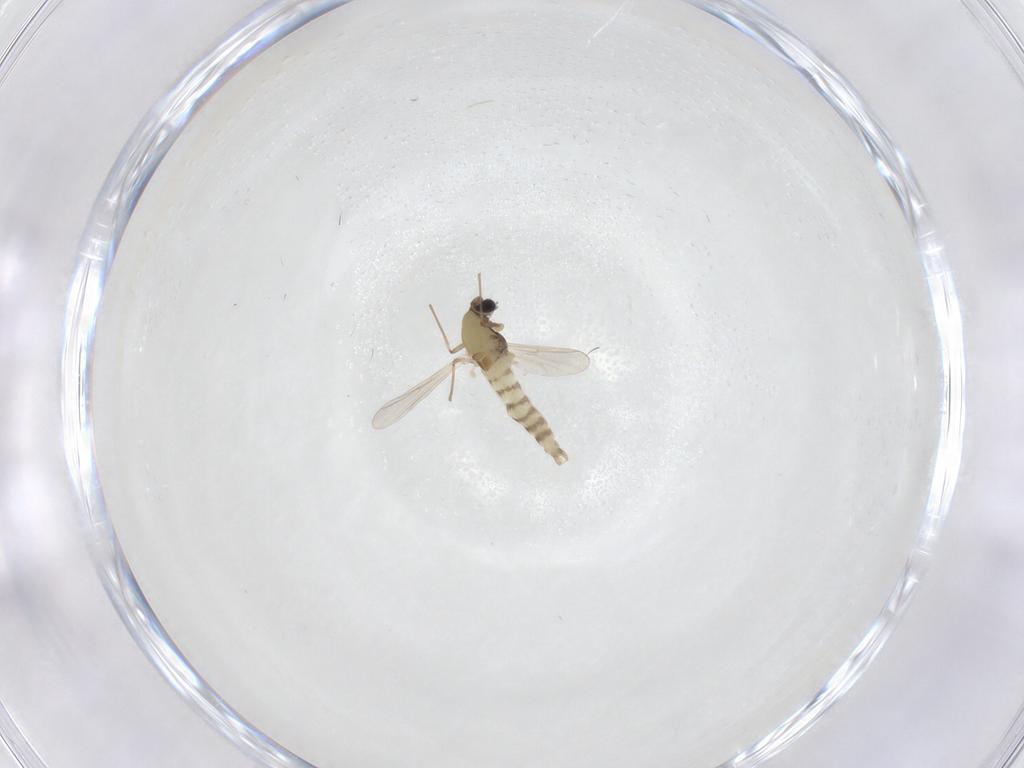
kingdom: Animalia
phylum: Arthropoda
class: Insecta
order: Diptera
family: Chironomidae
